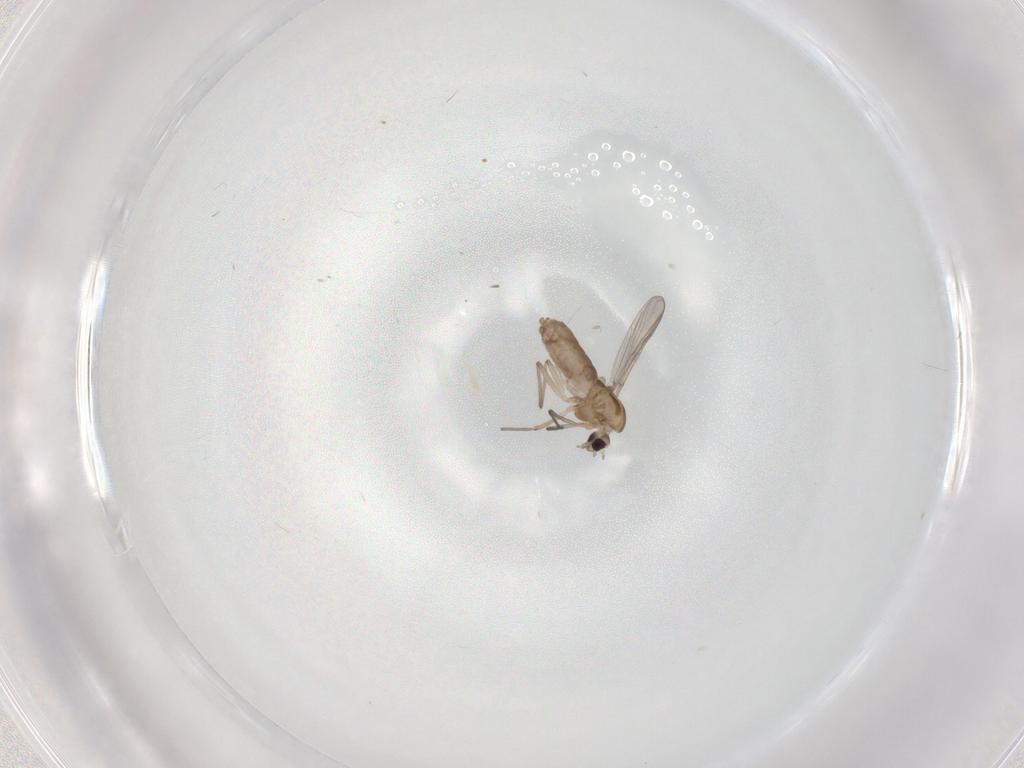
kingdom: Animalia
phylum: Arthropoda
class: Insecta
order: Diptera
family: Chironomidae
